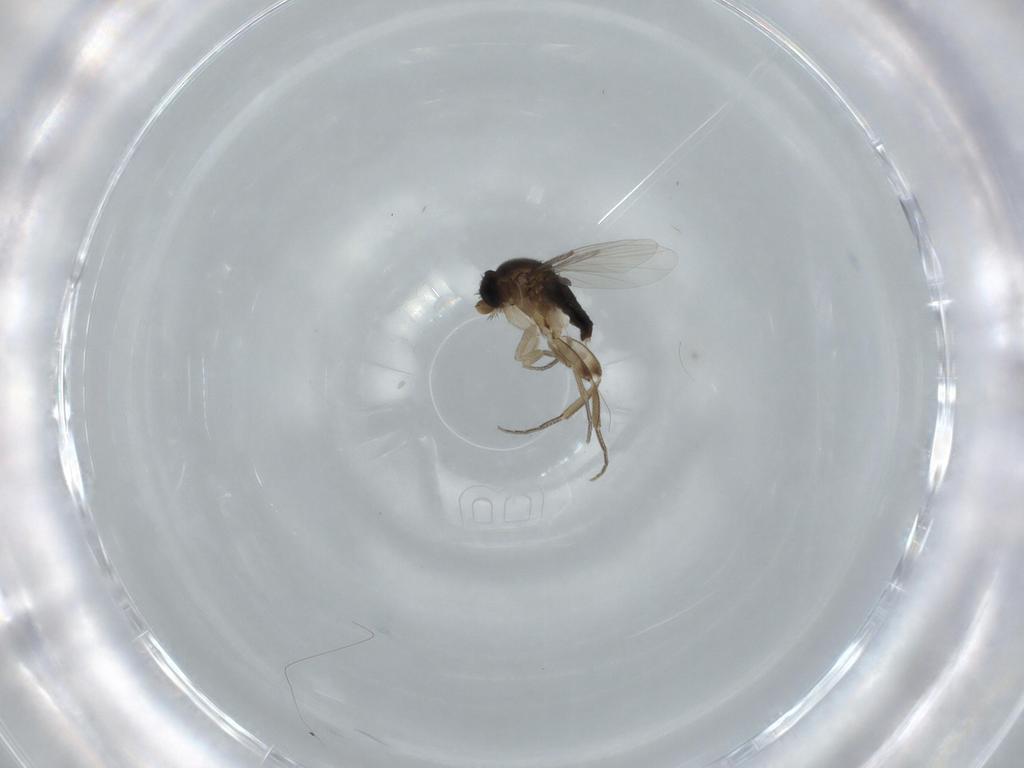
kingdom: Animalia
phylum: Arthropoda
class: Insecta
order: Diptera
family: Phoridae
